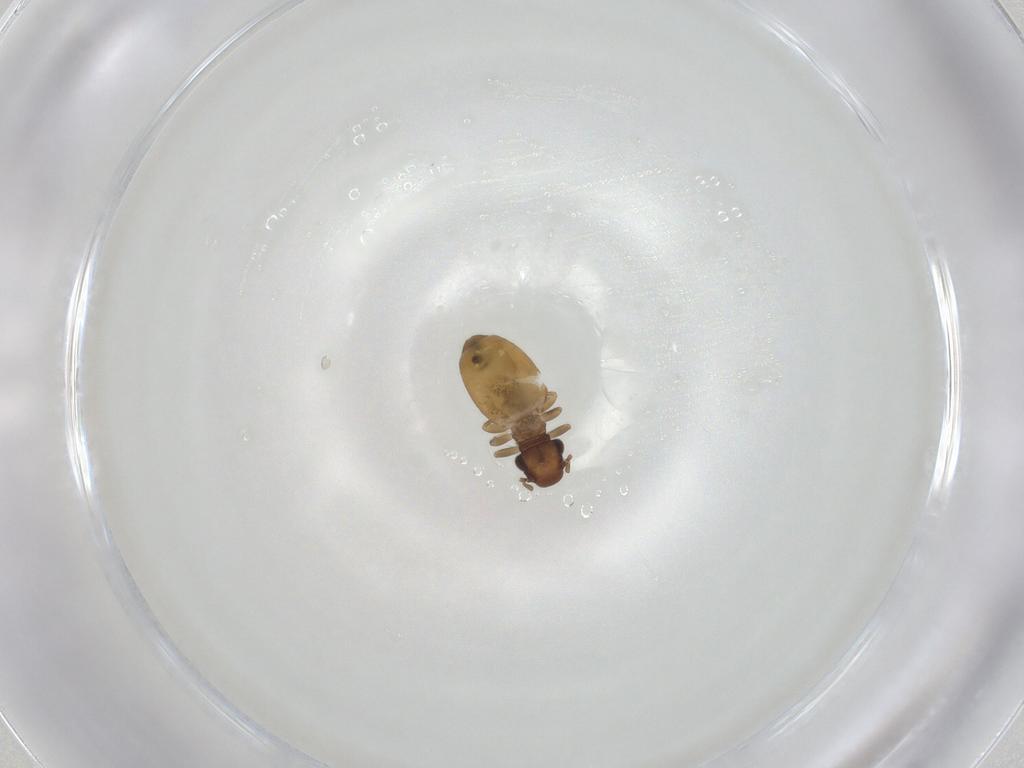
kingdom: Animalia
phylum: Arthropoda
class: Insecta
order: Psocodea
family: Trogiidae
